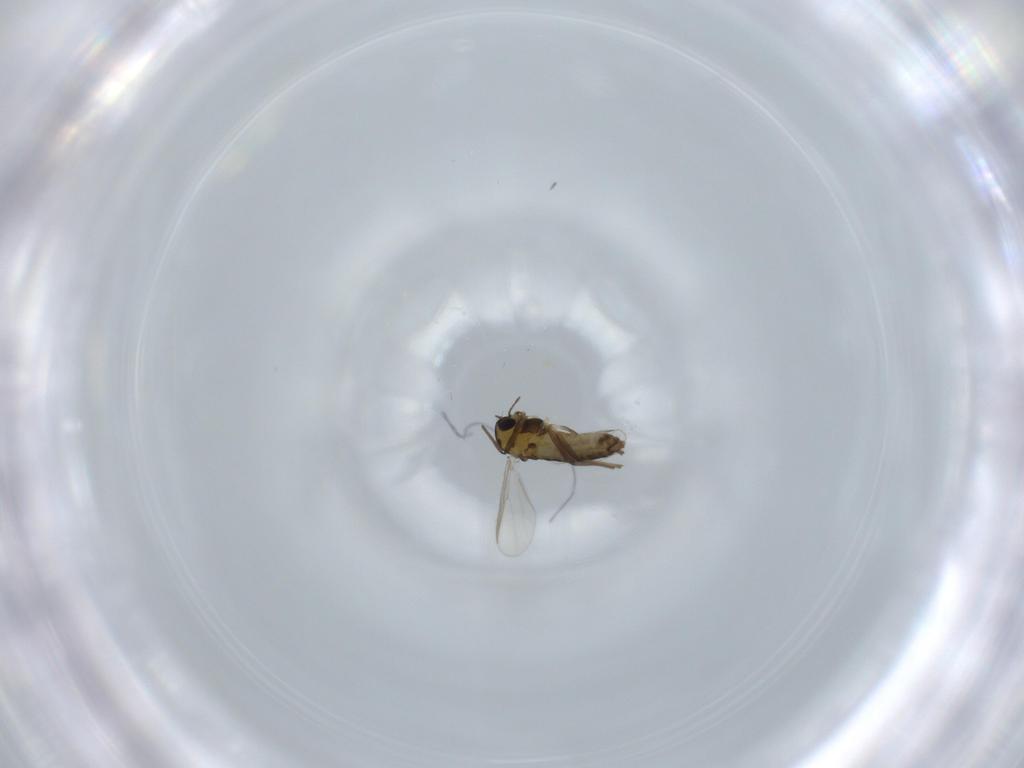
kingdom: Animalia
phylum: Arthropoda
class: Insecta
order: Diptera
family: Chironomidae
